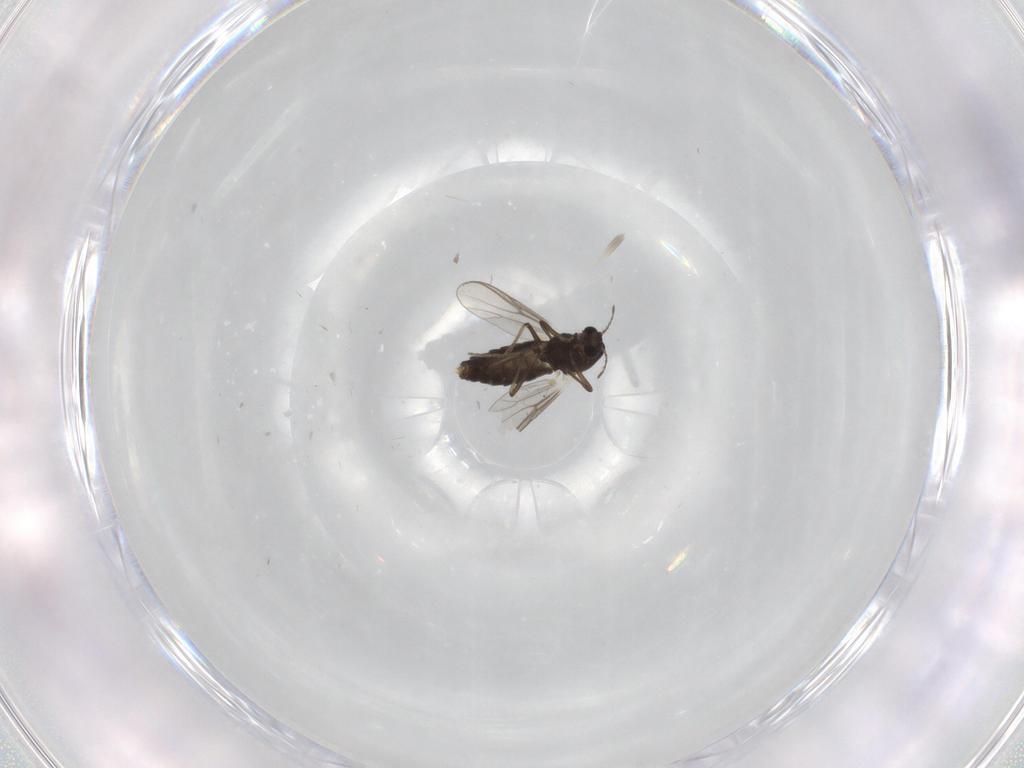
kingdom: Animalia
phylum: Arthropoda
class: Insecta
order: Diptera
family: Chironomidae
